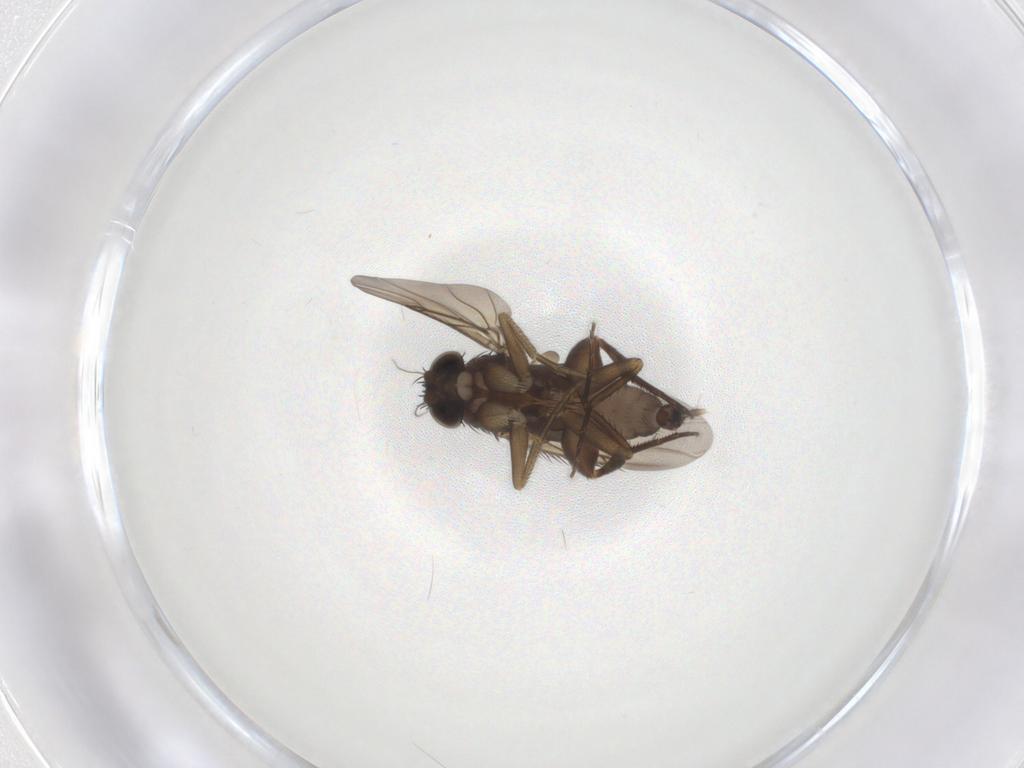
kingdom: Animalia
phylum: Arthropoda
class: Insecta
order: Diptera
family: Phoridae
